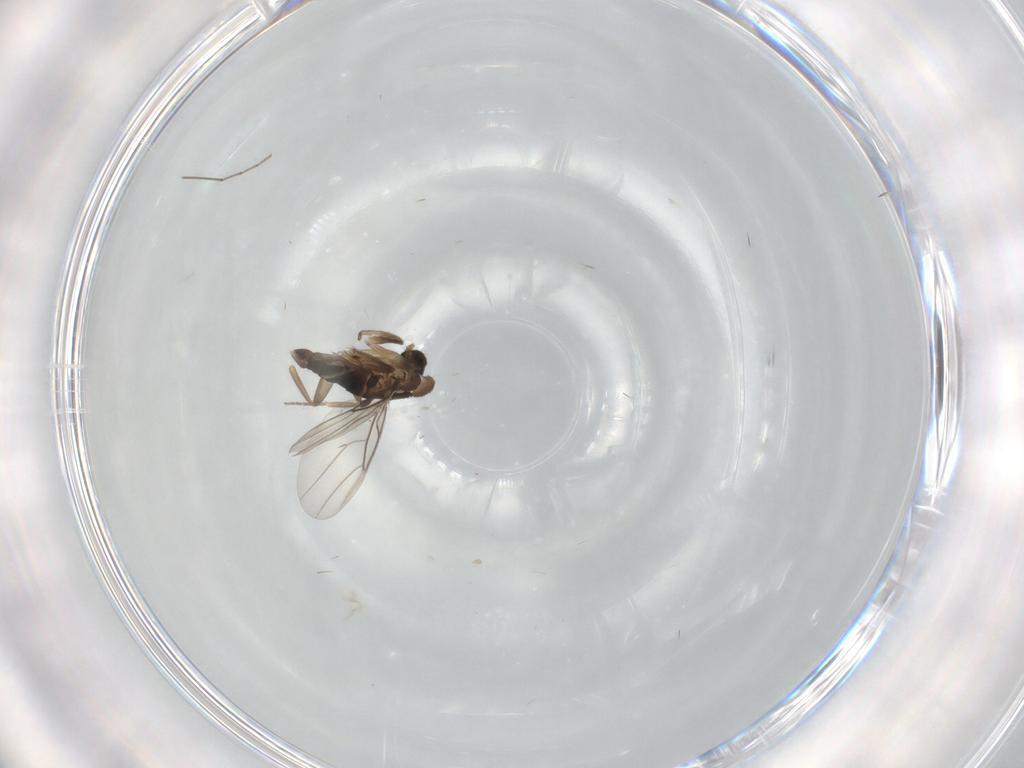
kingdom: Animalia
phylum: Arthropoda
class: Insecta
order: Diptera
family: Phoridae
